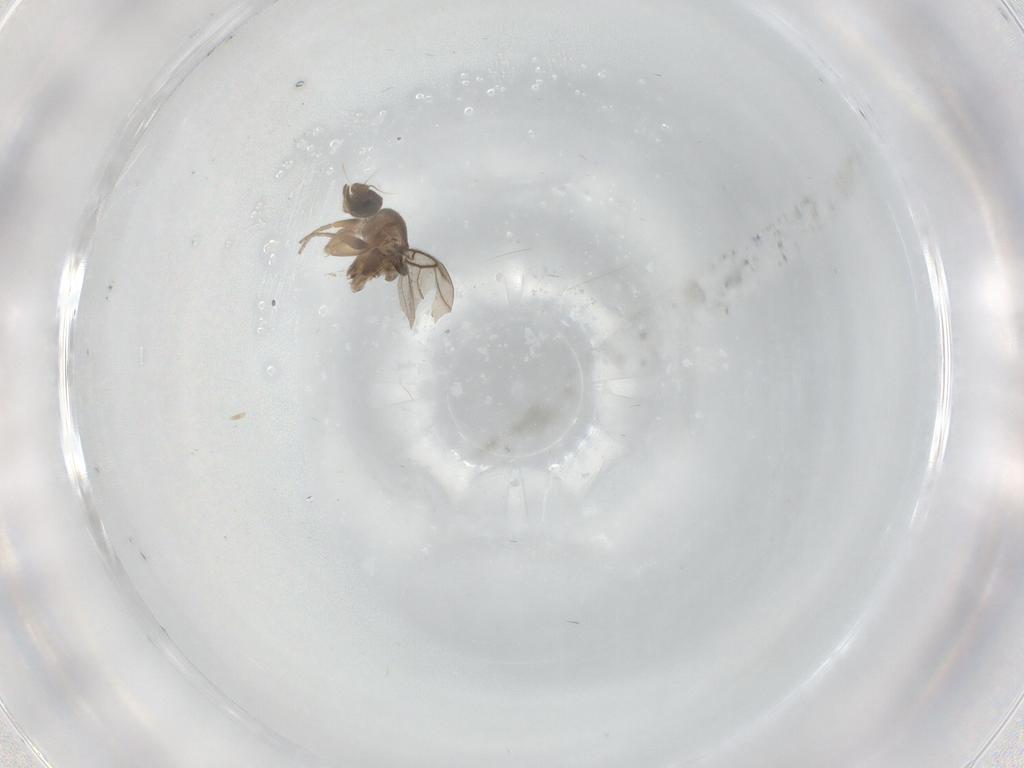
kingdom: Animalia
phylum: Arthropoda
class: Insecta
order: Diptera
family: Phoridae
